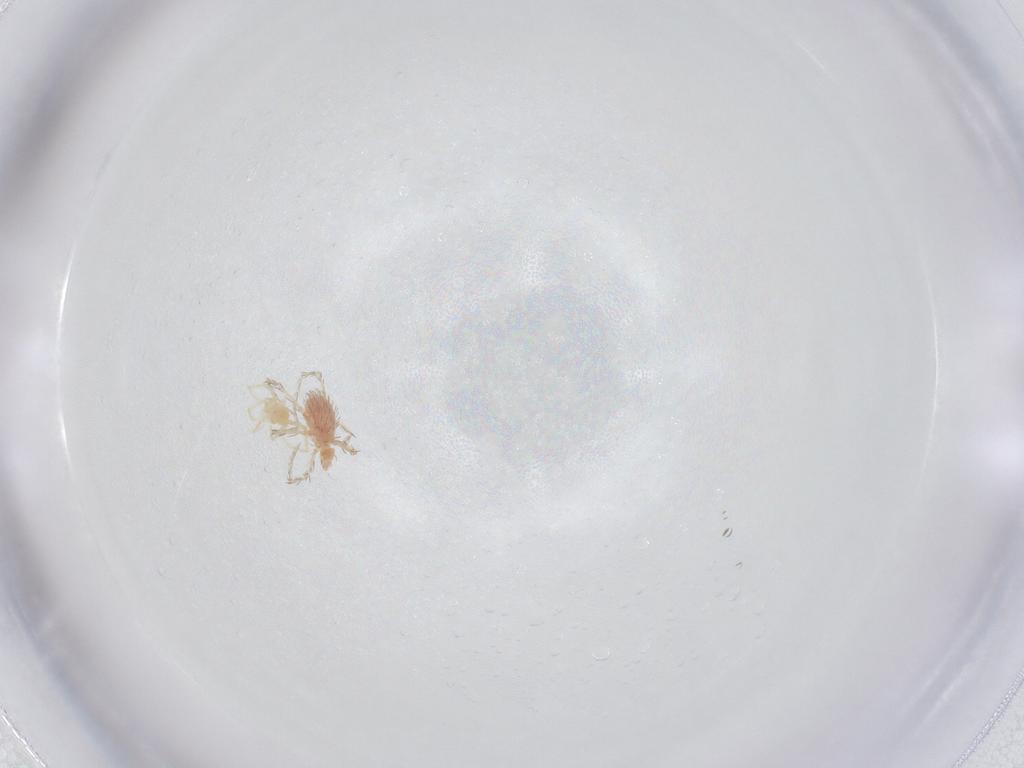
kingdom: Animalia
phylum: Arthropoda
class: Arachnida
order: Trombidiformes
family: Erythraeidae
